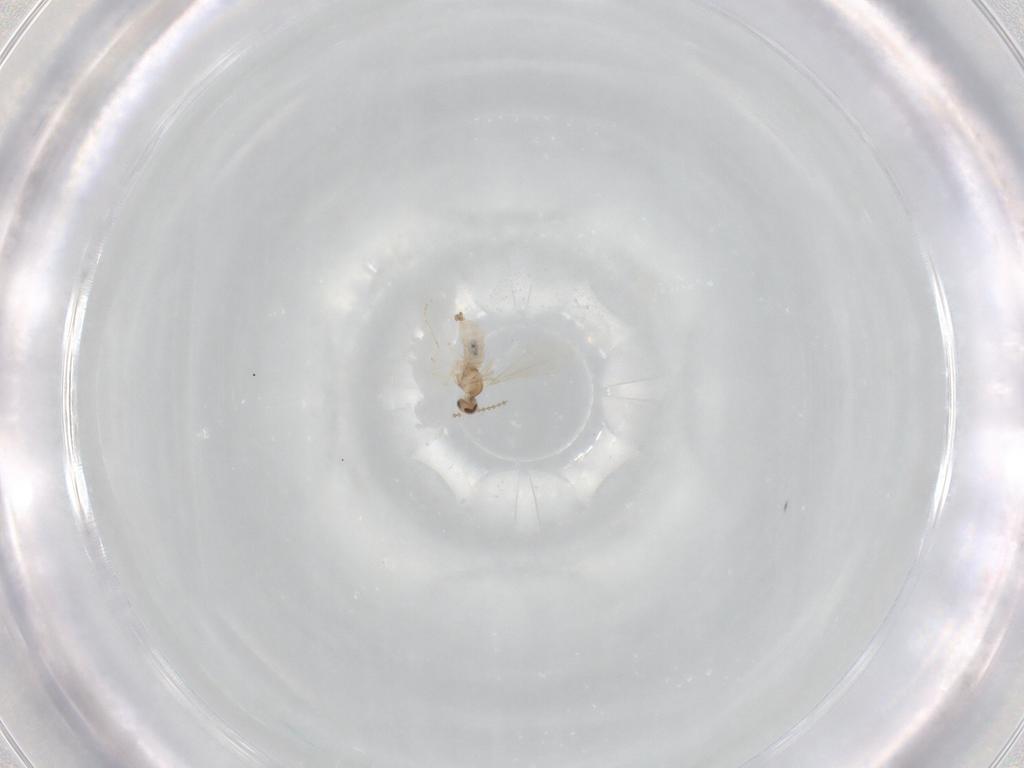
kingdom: Animalia
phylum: Arthropoda
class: Insecta
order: Diptera
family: Cecidomyiidae
